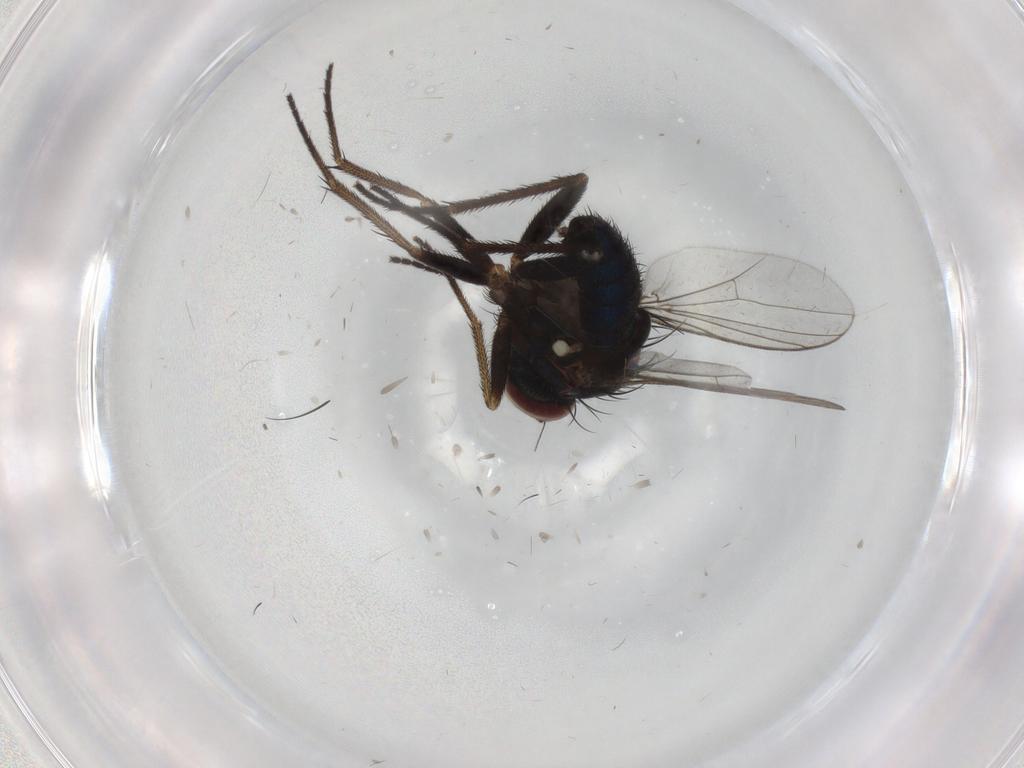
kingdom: Animalia
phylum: Arthropoda
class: Insecta
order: Diptera
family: Dolichopodidae
